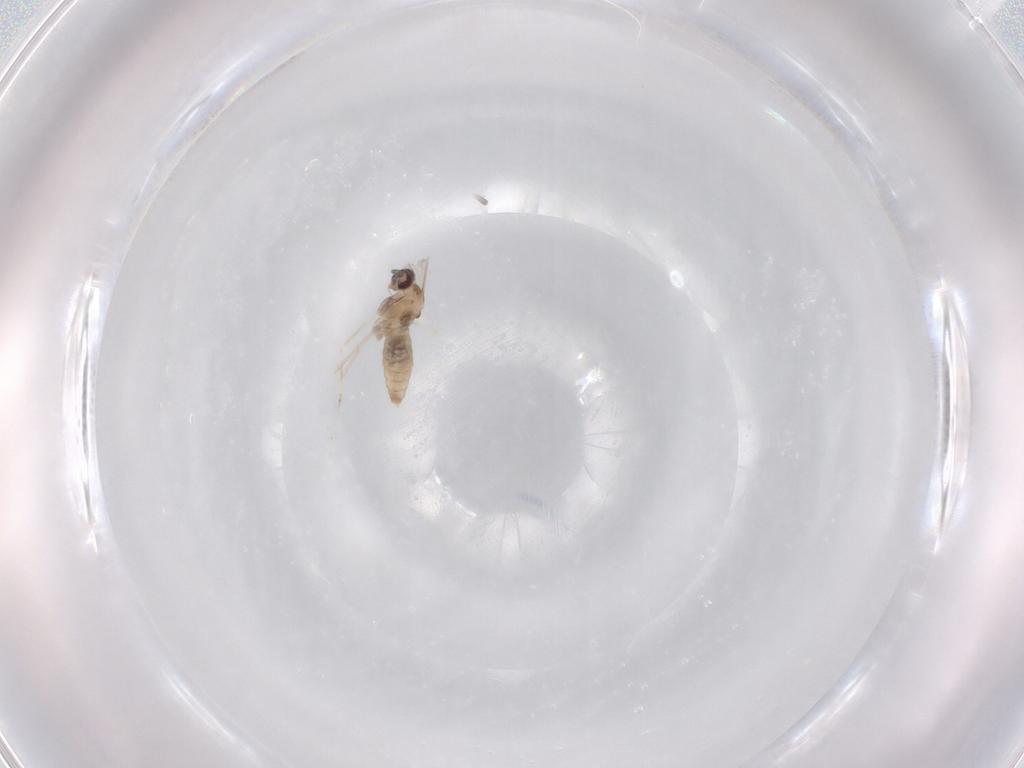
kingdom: Animalia
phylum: Arthropoda
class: Insecta
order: Diptera
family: Cecidomyiidae
